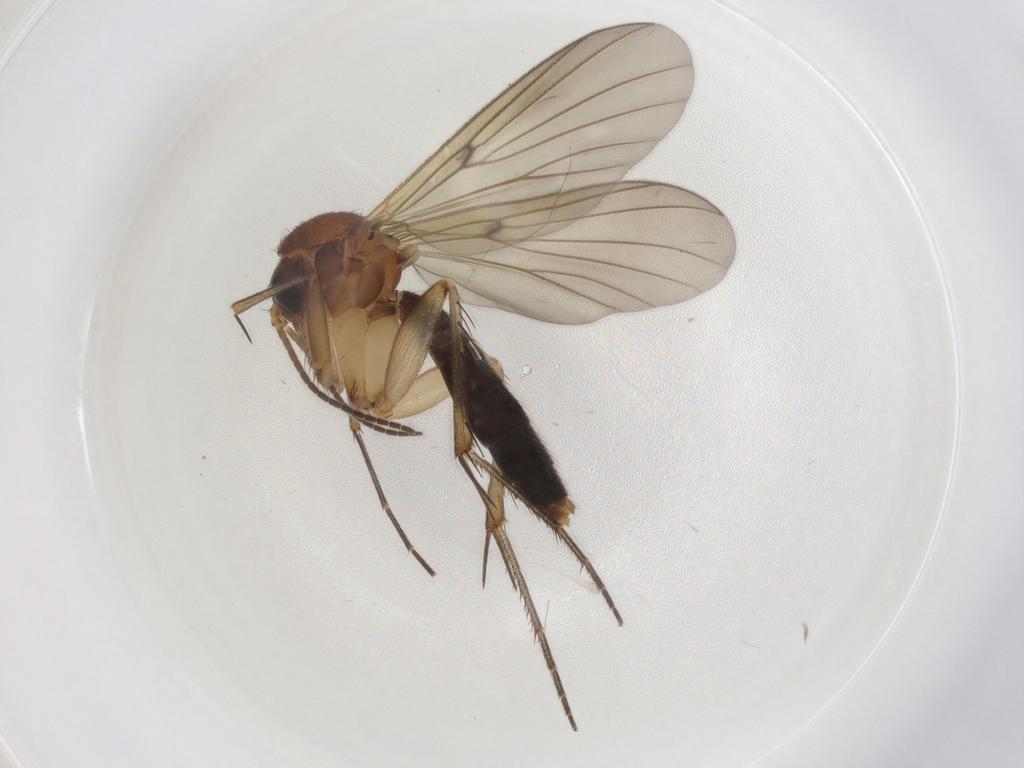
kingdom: Animalia
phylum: Arthropoda
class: Insecta
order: Diptera
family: Mycetophilidae
